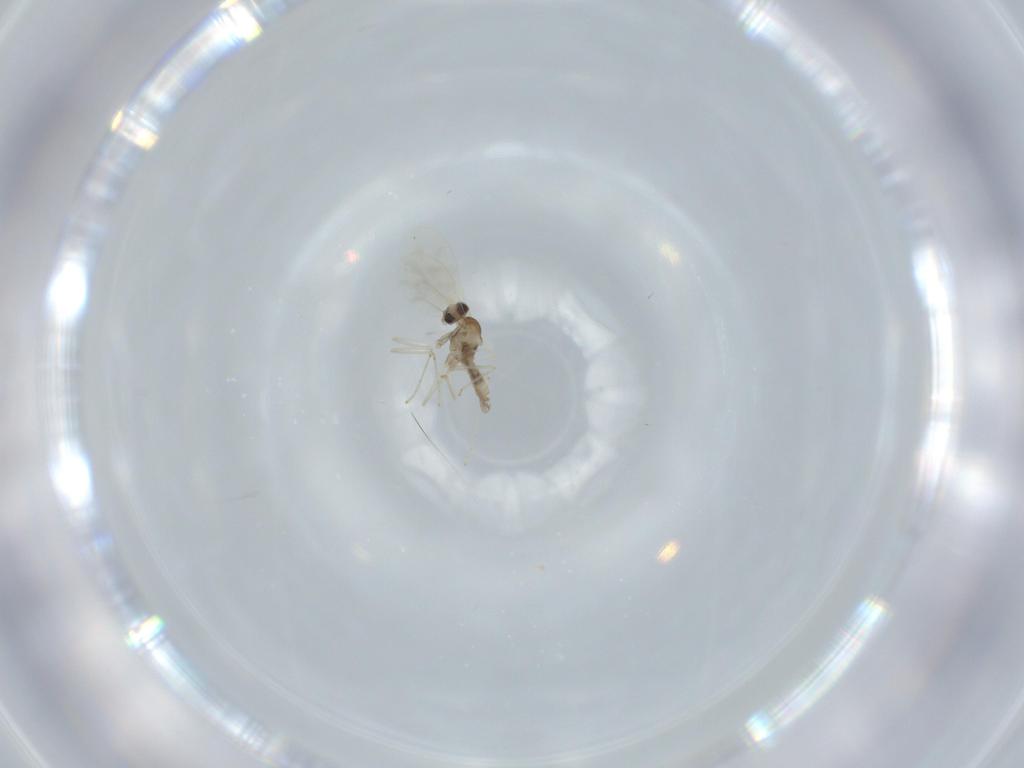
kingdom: Animalia
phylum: Arthropoda
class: Insecta
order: Diptera
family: Cecidomyiidae
